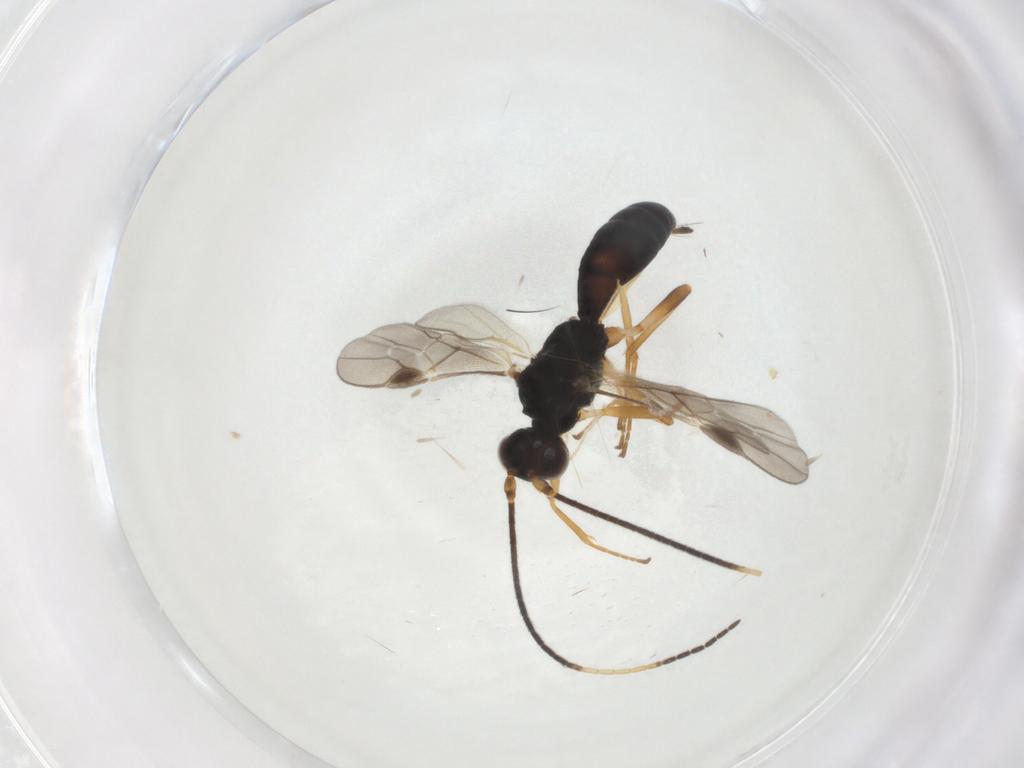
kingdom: Animalia
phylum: Arthropoda
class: Insecta
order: Hymenoptera
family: Braconidae
